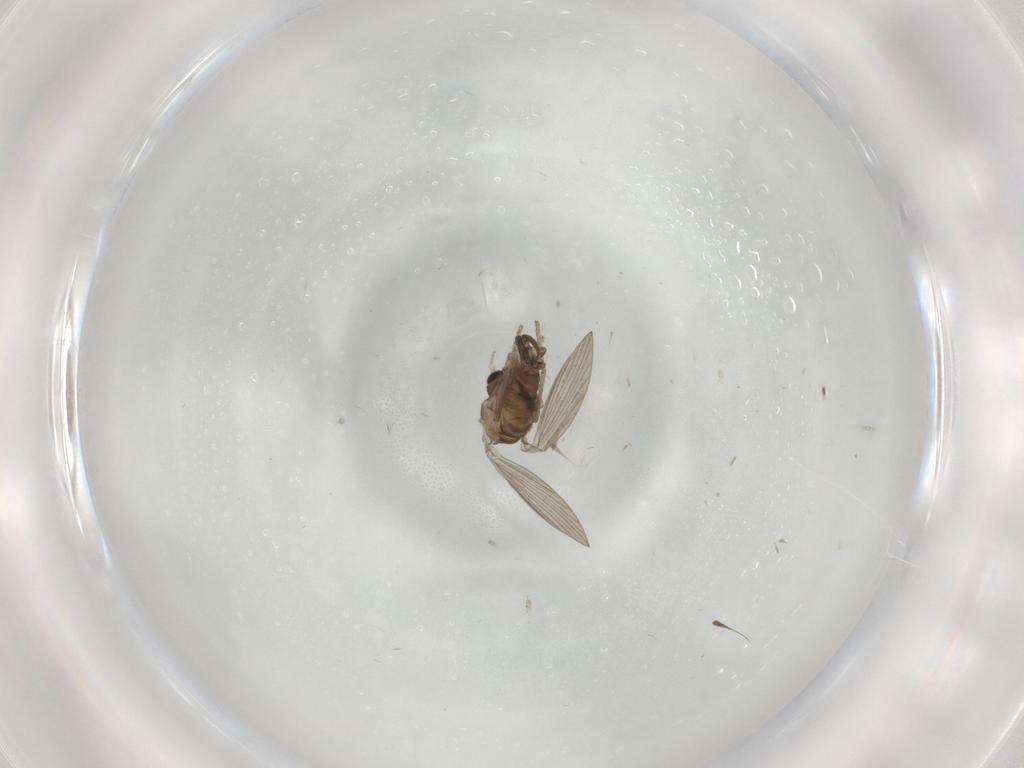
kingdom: Animalia
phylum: Arthropoda
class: Insecta
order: Diptera
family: Psychodidae
